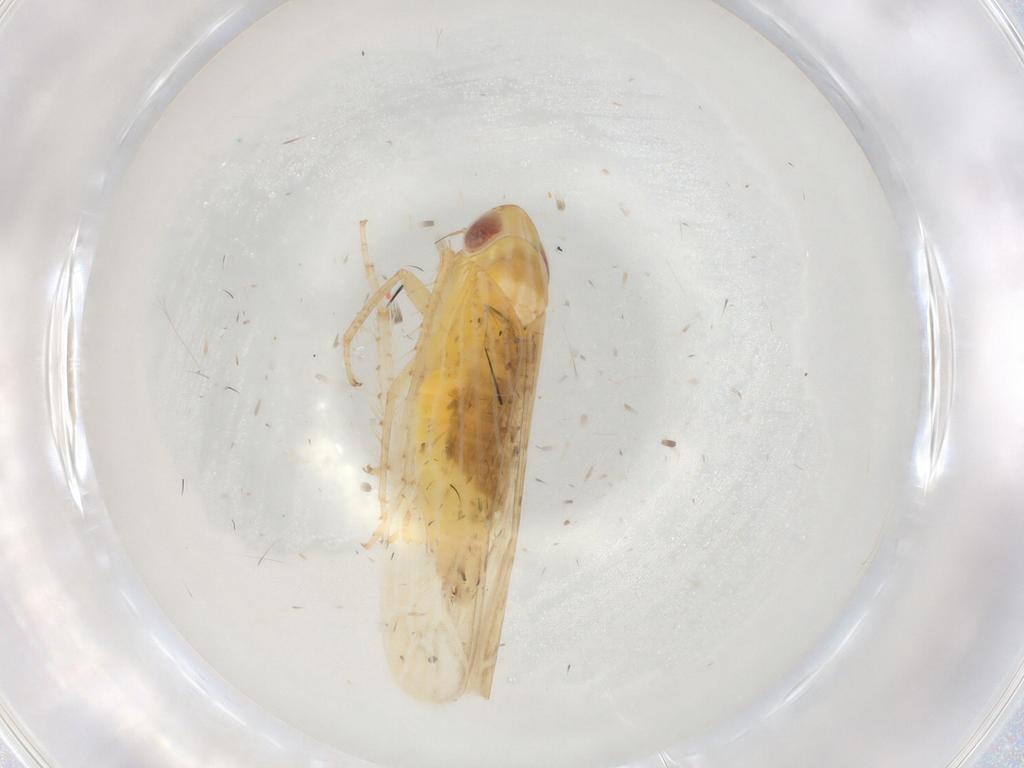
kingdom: Animalia
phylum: Arthropoda
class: Insecta
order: Hemiptera
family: Cicadellidae
